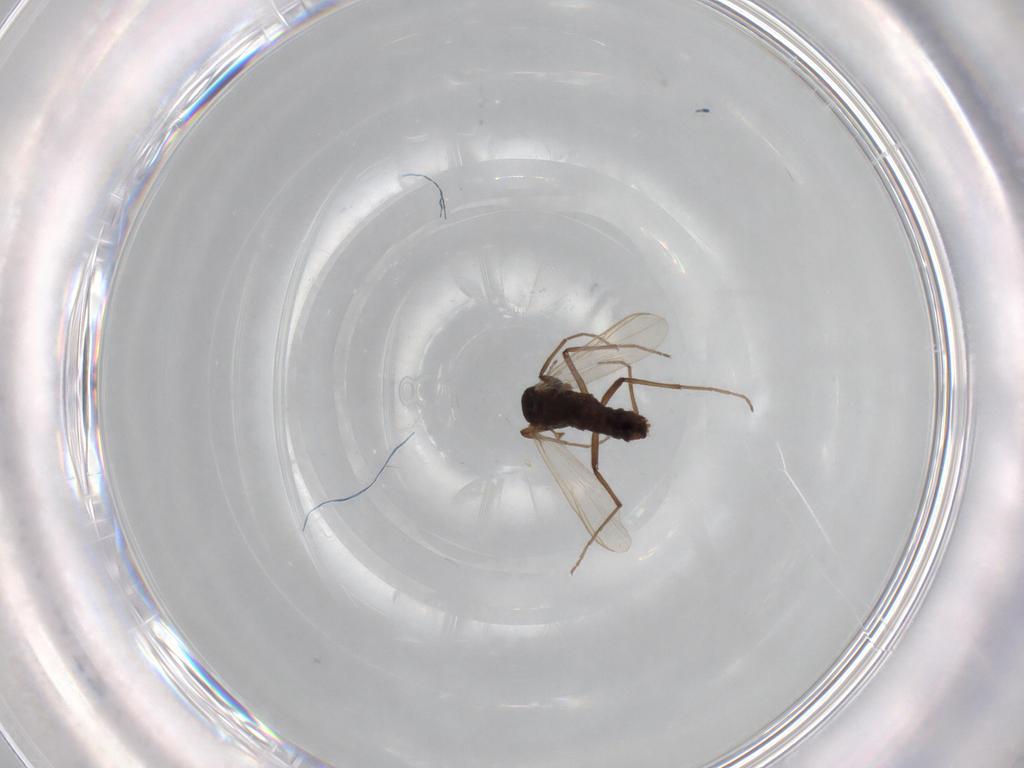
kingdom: Animalia
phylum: Arthropoda
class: Insecta
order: Diptera
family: Chironomidae
